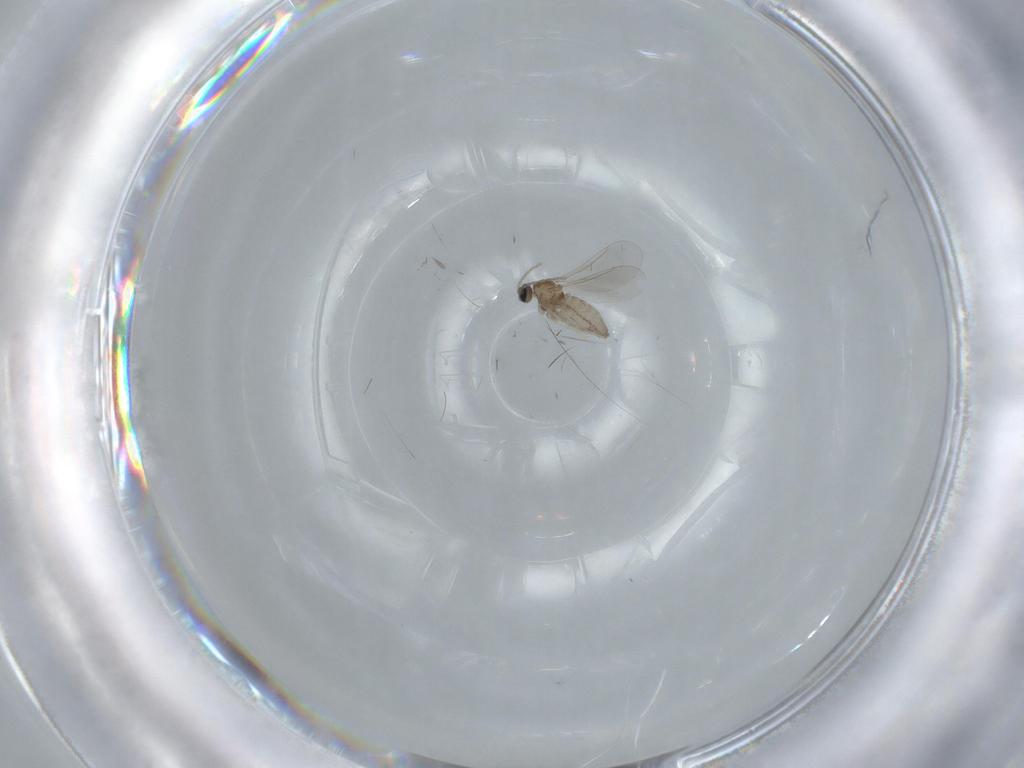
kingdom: Animalia
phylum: Arthropoda
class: Insecta
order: Diptera
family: Cecidomyiidae
